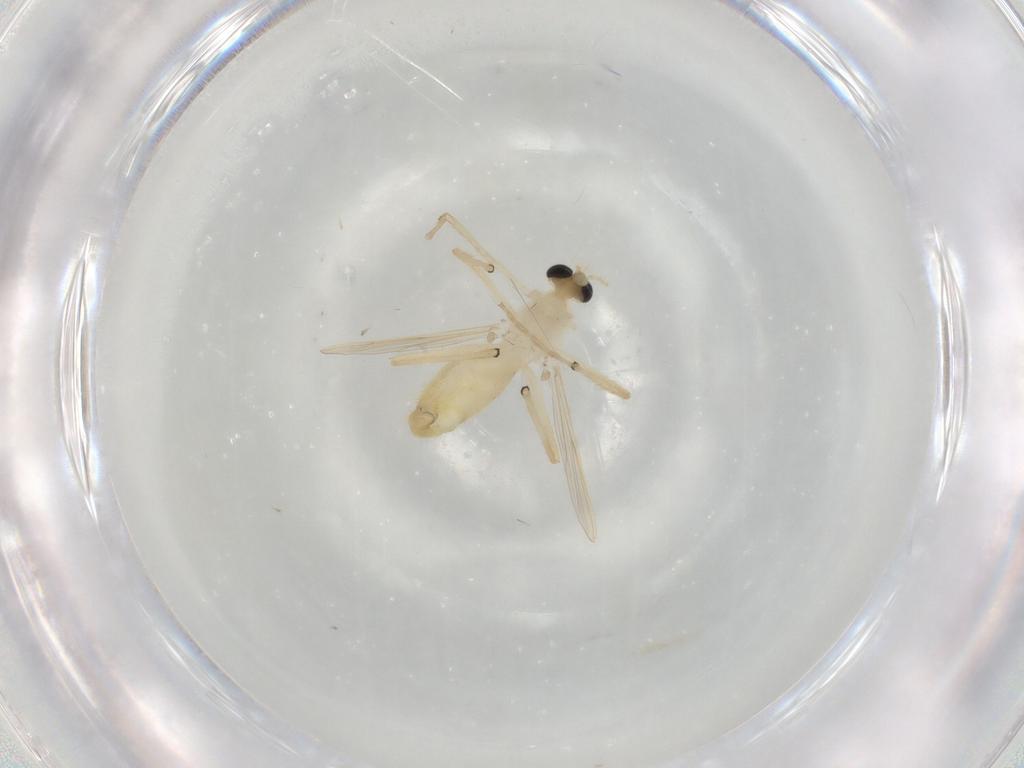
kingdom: Animalia
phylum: Arthropoda
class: Insecta
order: Diptera
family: Chironomidae
